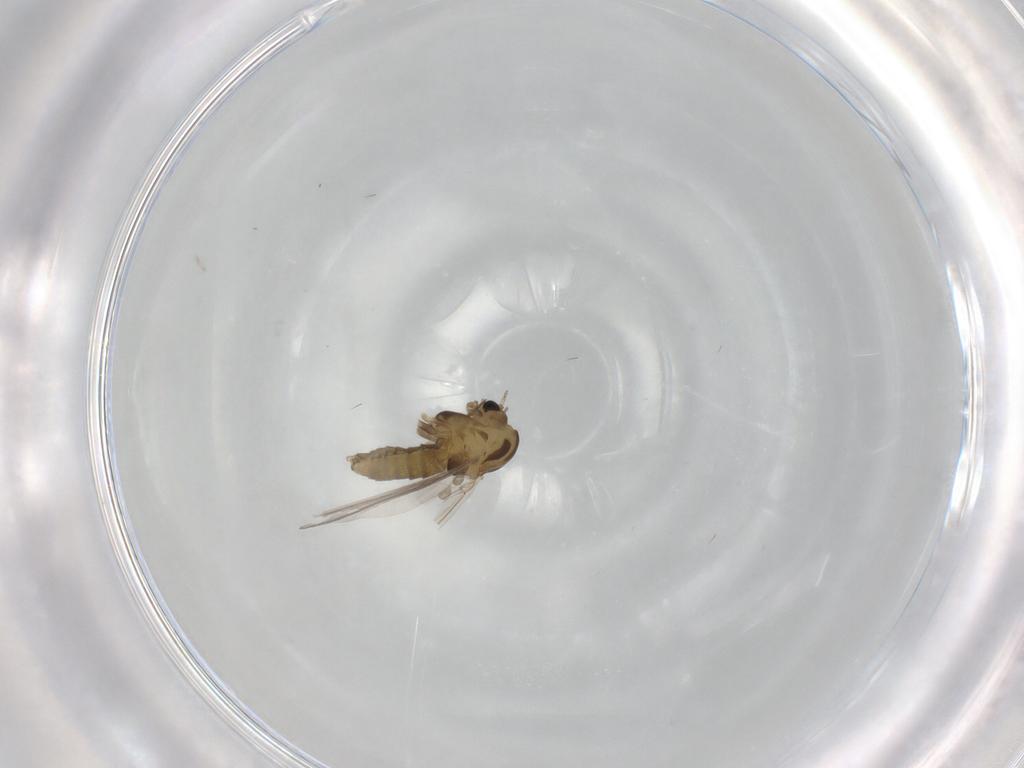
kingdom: Animalia
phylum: Arthropoda
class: Insecta
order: Diptera
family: Chironomidae
